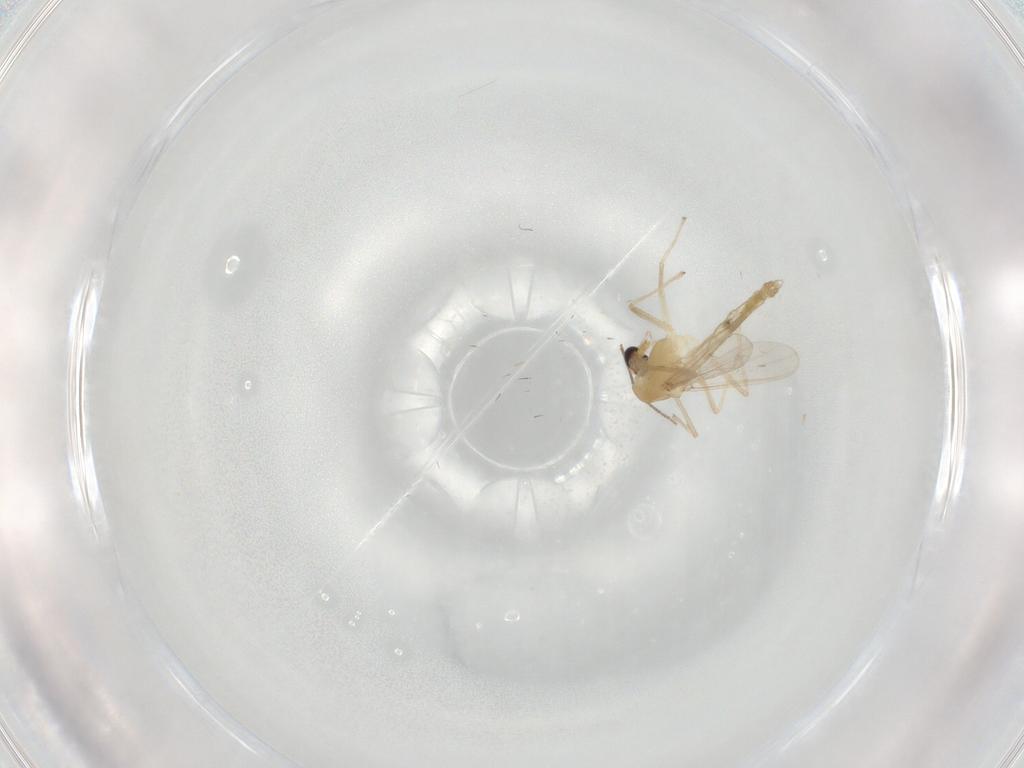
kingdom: Animalia
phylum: Arthropoda
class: Insecta
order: Diptera
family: Chironomidae
